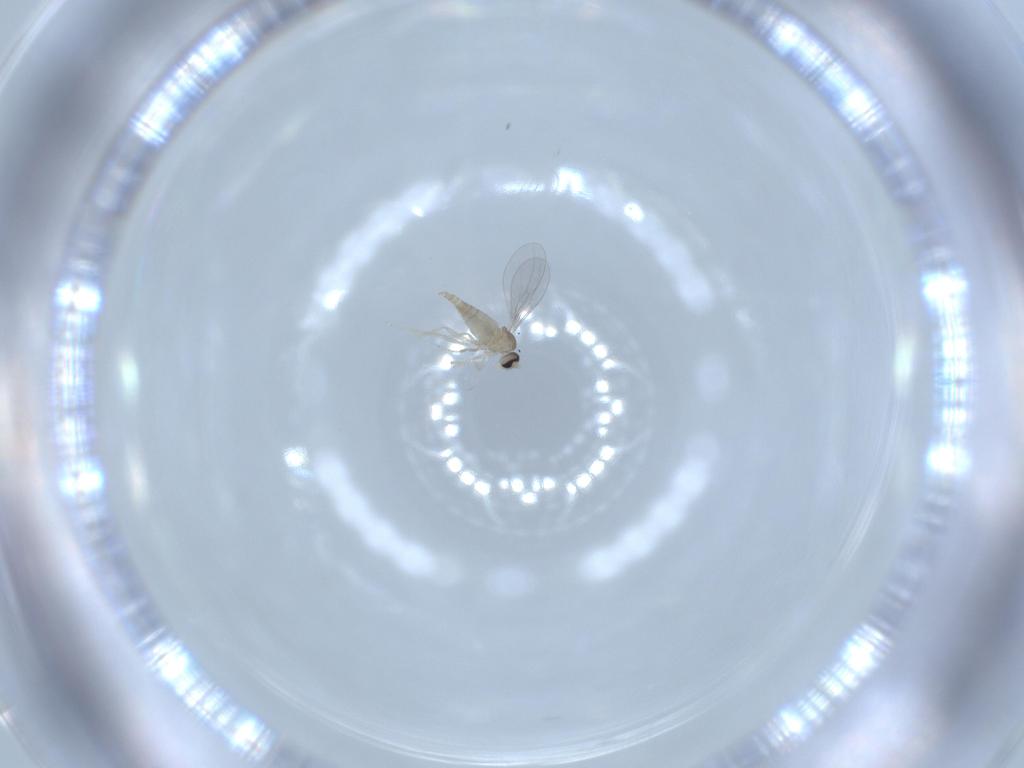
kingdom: Animalia
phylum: Arthropoda
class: Insecta
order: Diptera
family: Cecidomyiidae
